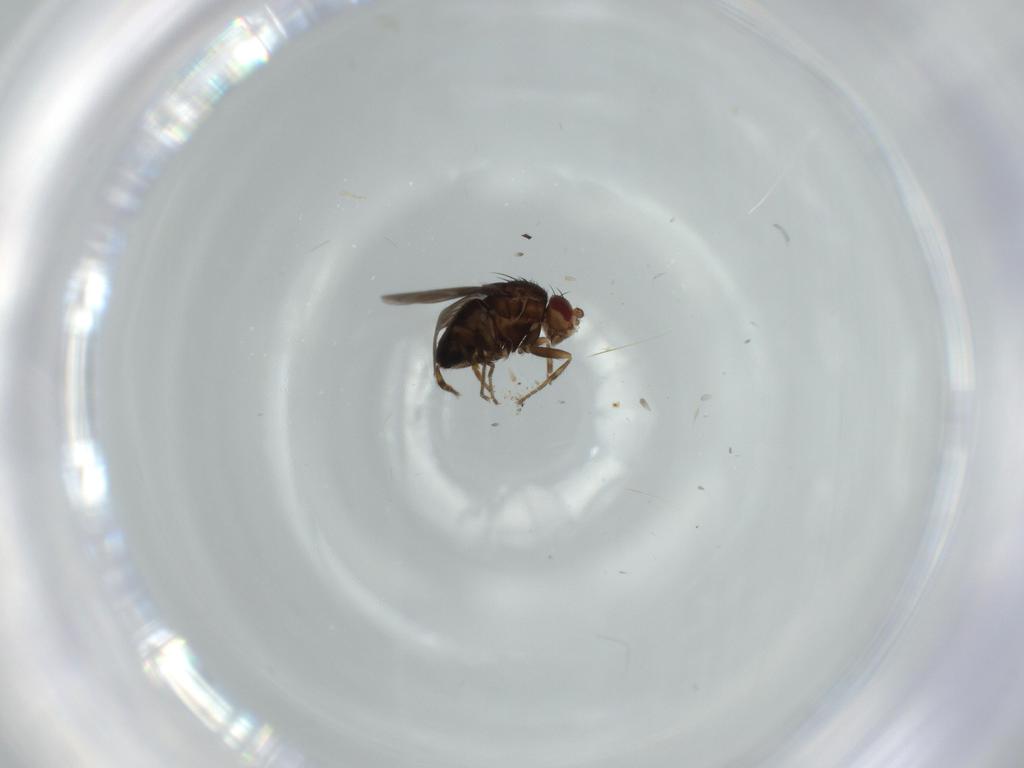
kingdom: Animalia
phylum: Arthropoda
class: Insecta
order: Diptera
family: Sphaeroceridae
